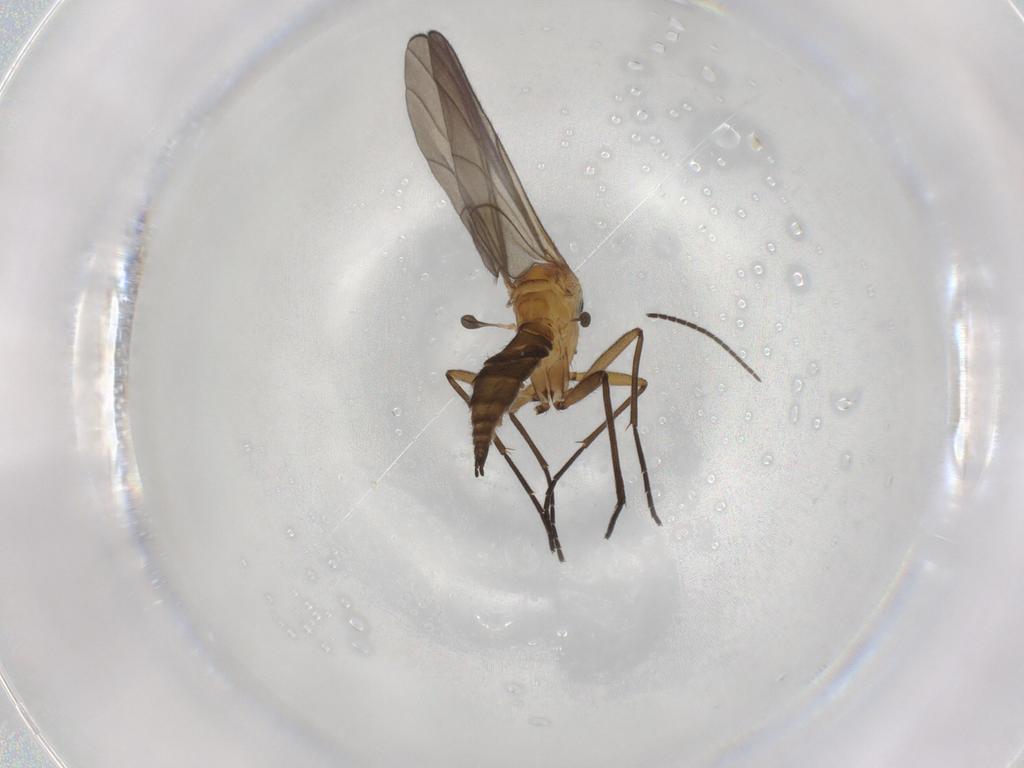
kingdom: Animalia
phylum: Arthropoda
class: Insecta
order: Diptera
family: Sciaridae
